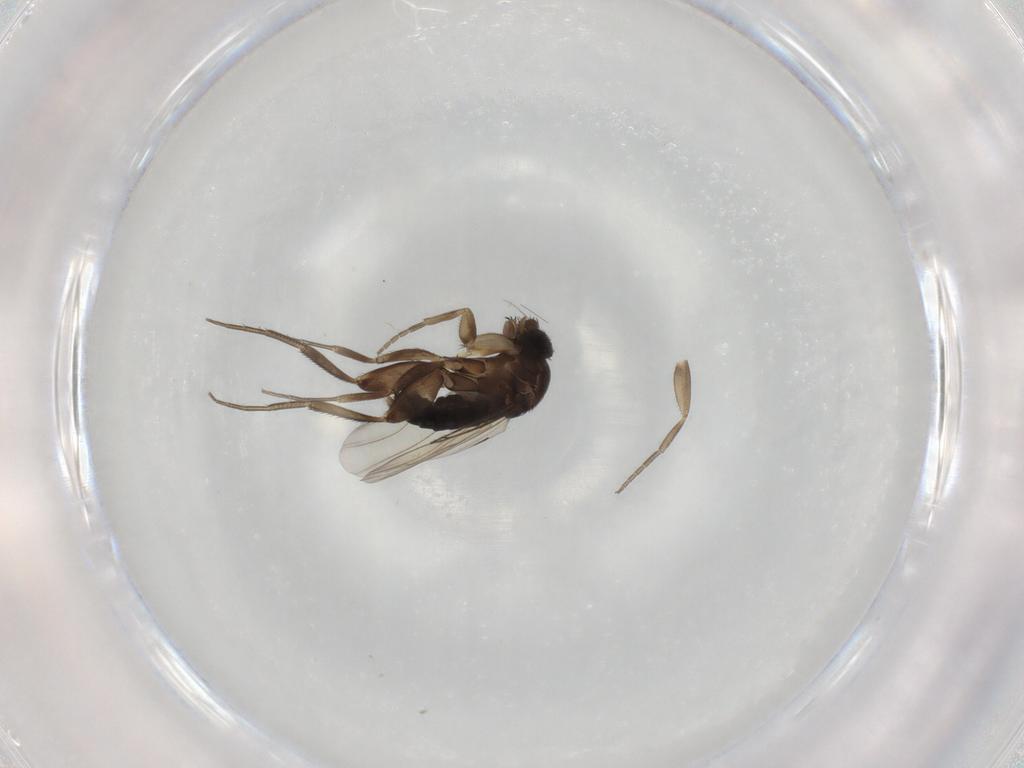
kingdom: Animalia
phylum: Arthropoda
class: Insecta
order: Diptera
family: Phoridae
